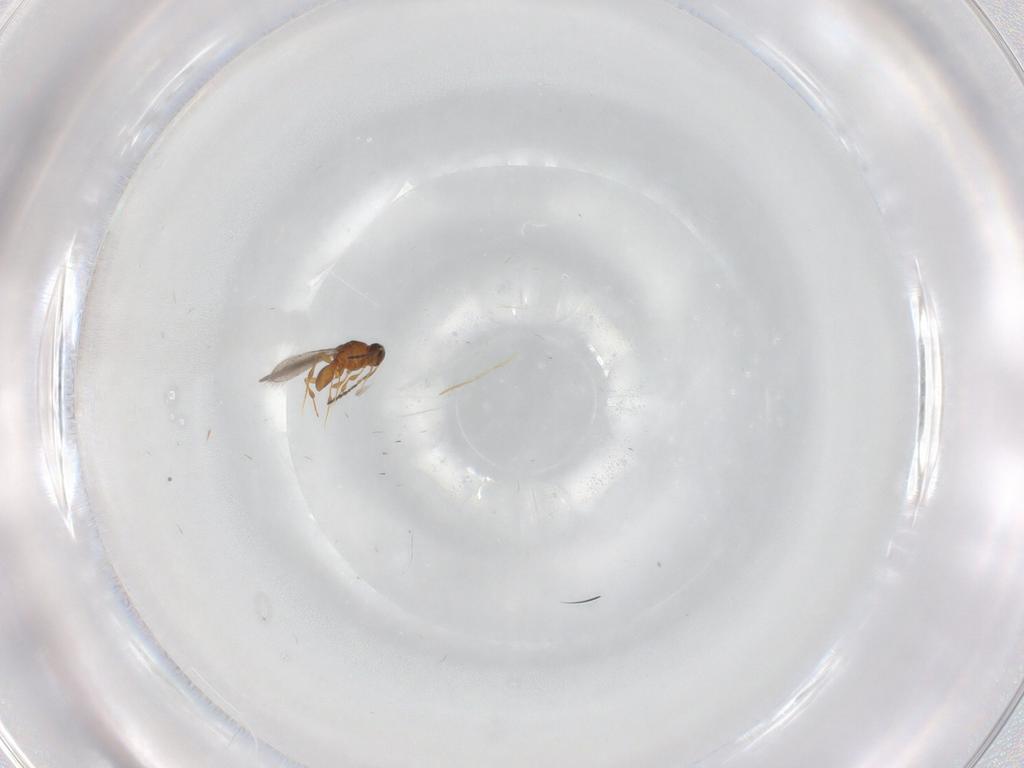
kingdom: Animalia
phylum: Arthropoda
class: Insecta
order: Hymenoptera
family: Platygastridae
